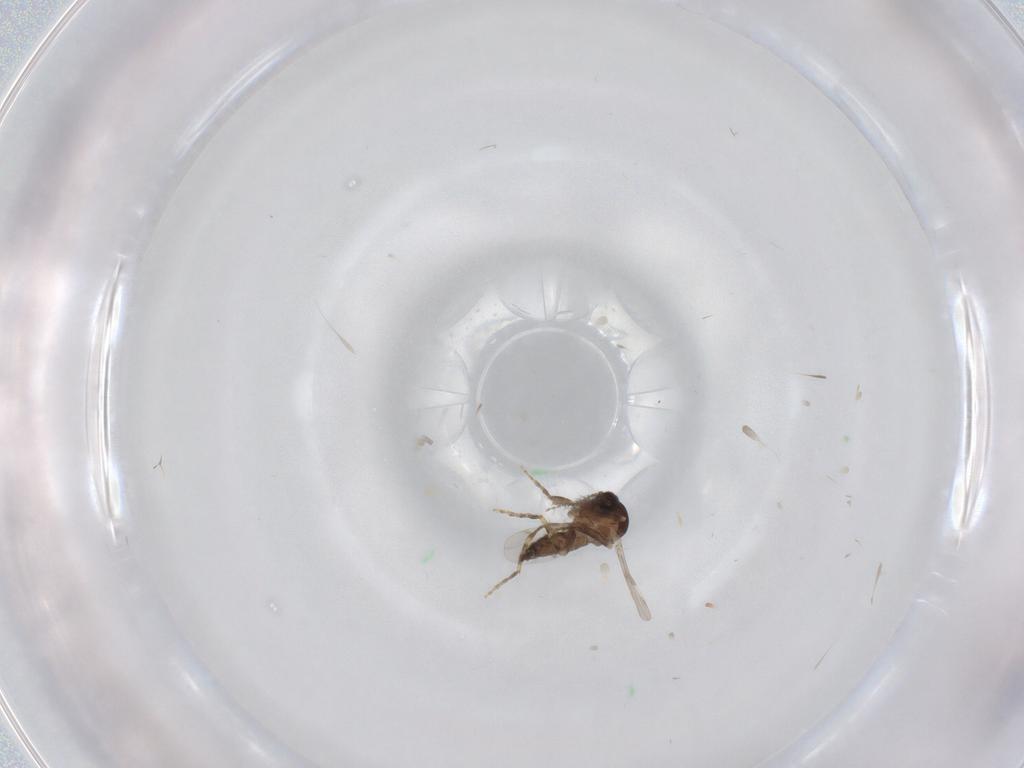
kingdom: Animalia
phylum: Arthropoda
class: Insecta
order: Diptera
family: Ceratopogonidae
